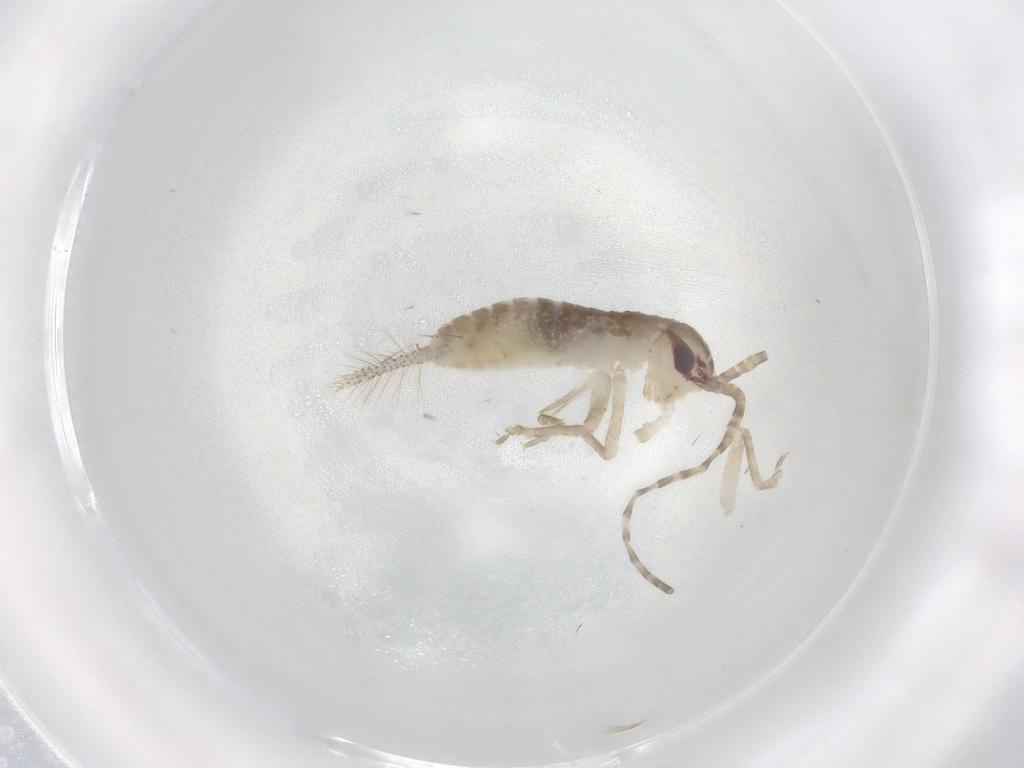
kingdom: Animalia
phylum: Arthropoda
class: Insecta
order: Orthoptera
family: Gryllidae
